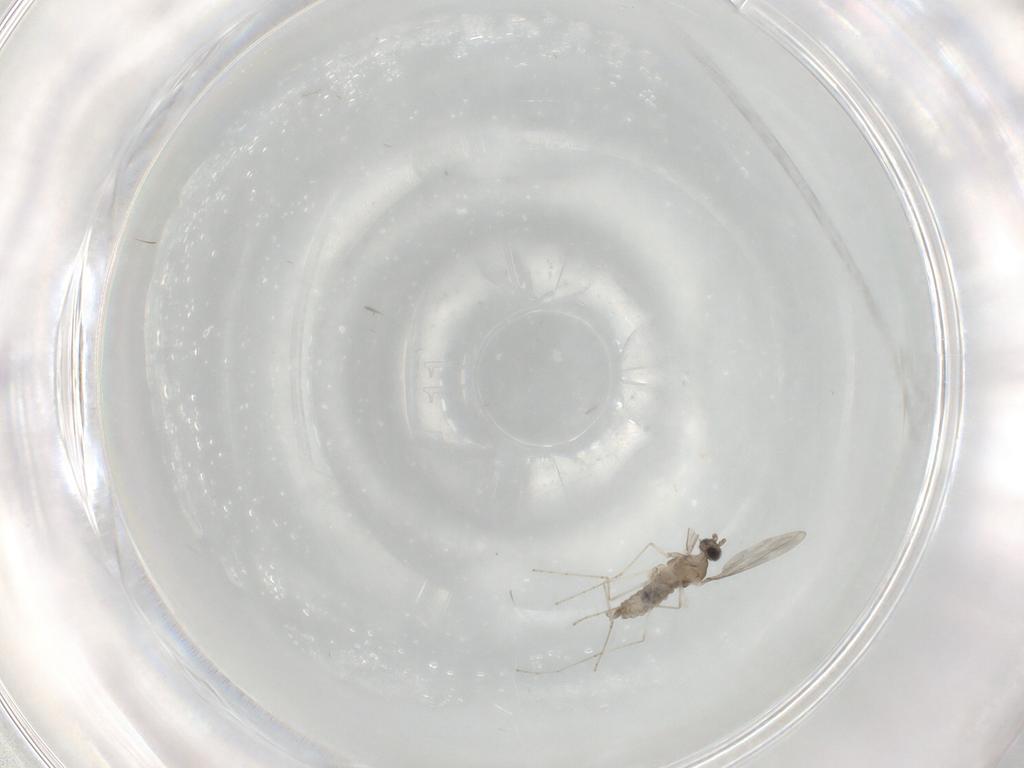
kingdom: Animalia
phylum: Arthropoda
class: Insecta
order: Diptera
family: Cecidomyiidae
